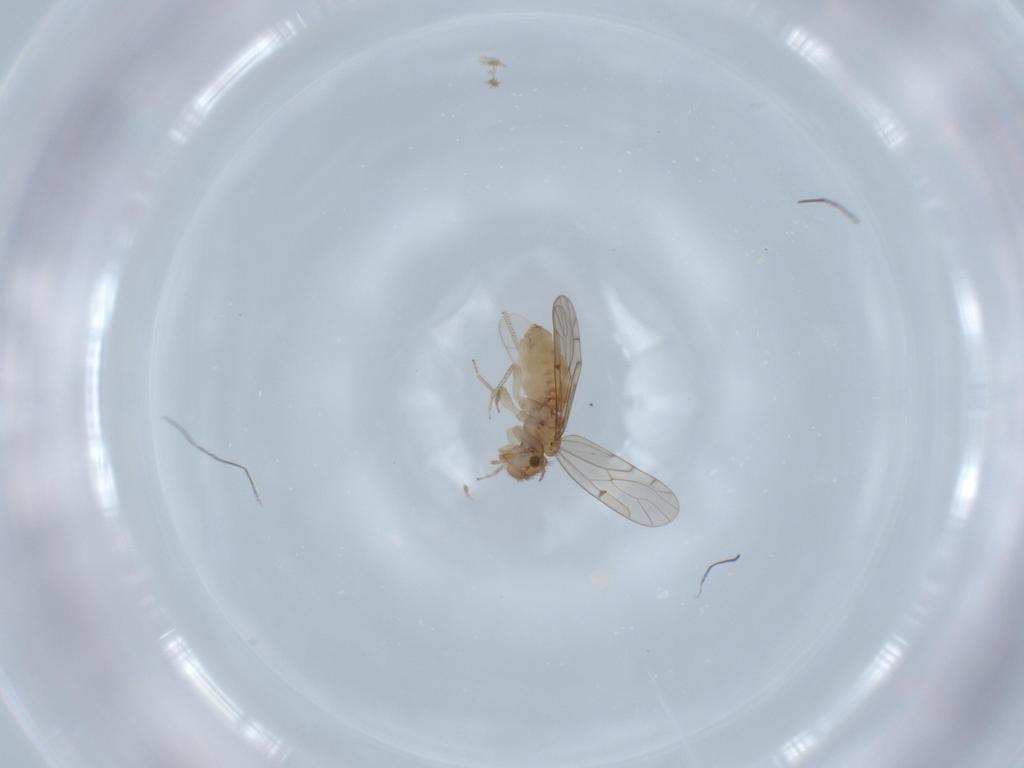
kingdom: Animalia
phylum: Arthropoda
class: Insecta
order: Psocodea
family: Ectopsocidae
